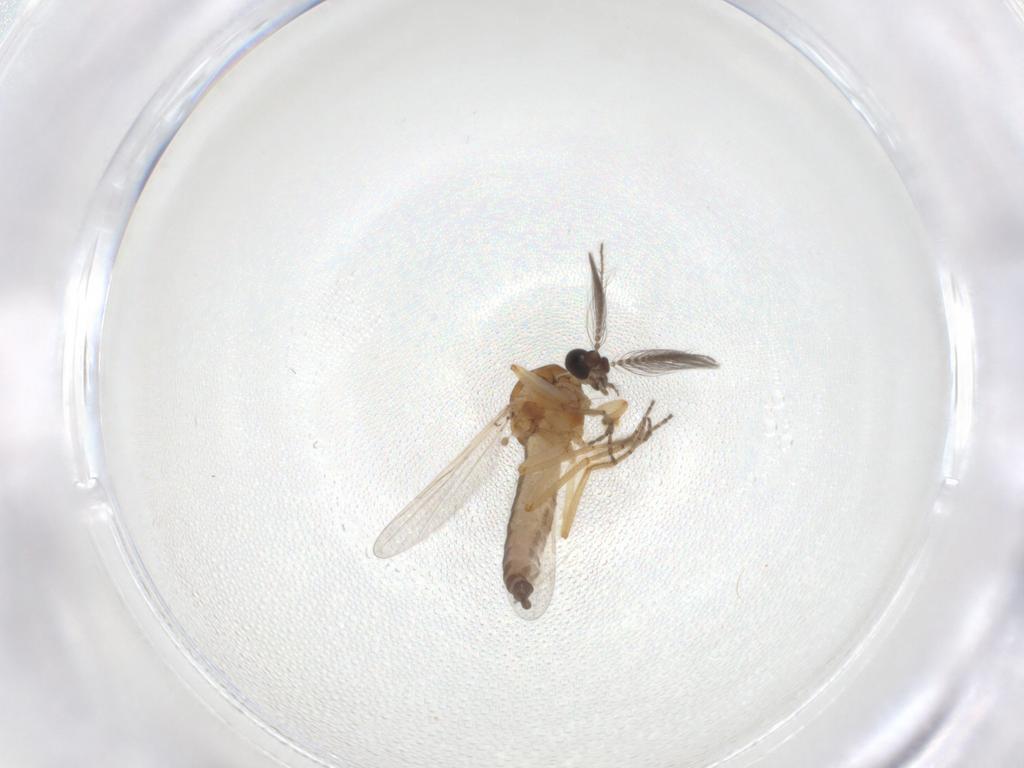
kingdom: Animalia
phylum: Arthropoda
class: Insecta
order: Diptera
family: Ceratopogonidae
